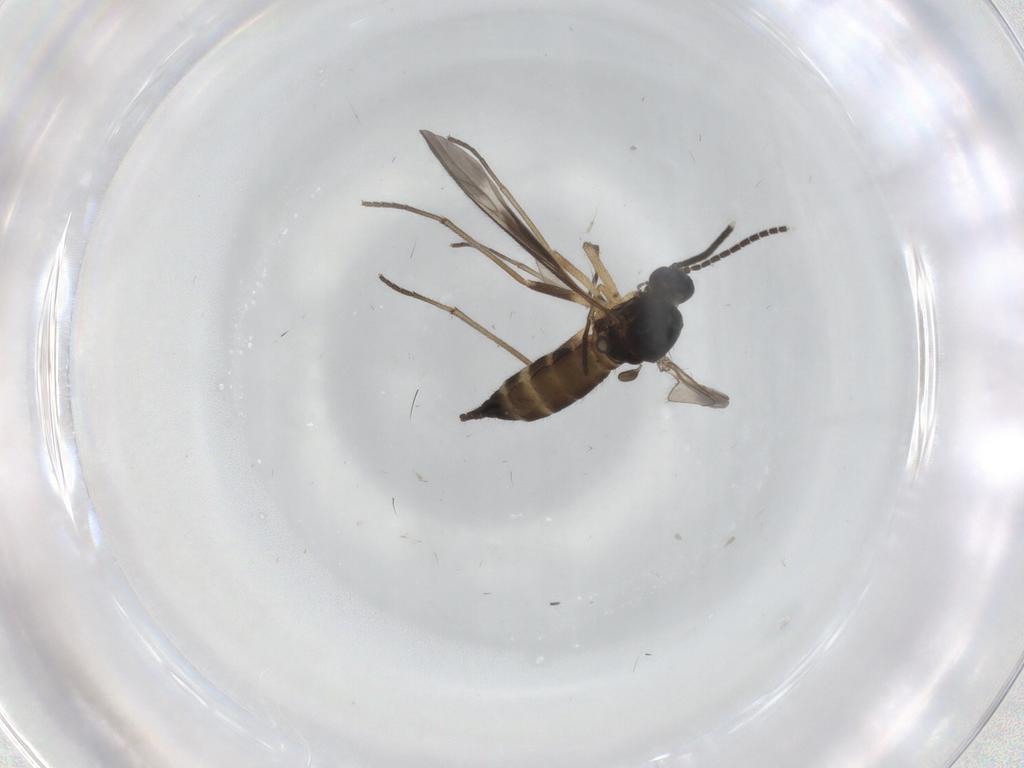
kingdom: Animalia
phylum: Arthropoda
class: Insecta
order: Diptera
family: Sciaridae
